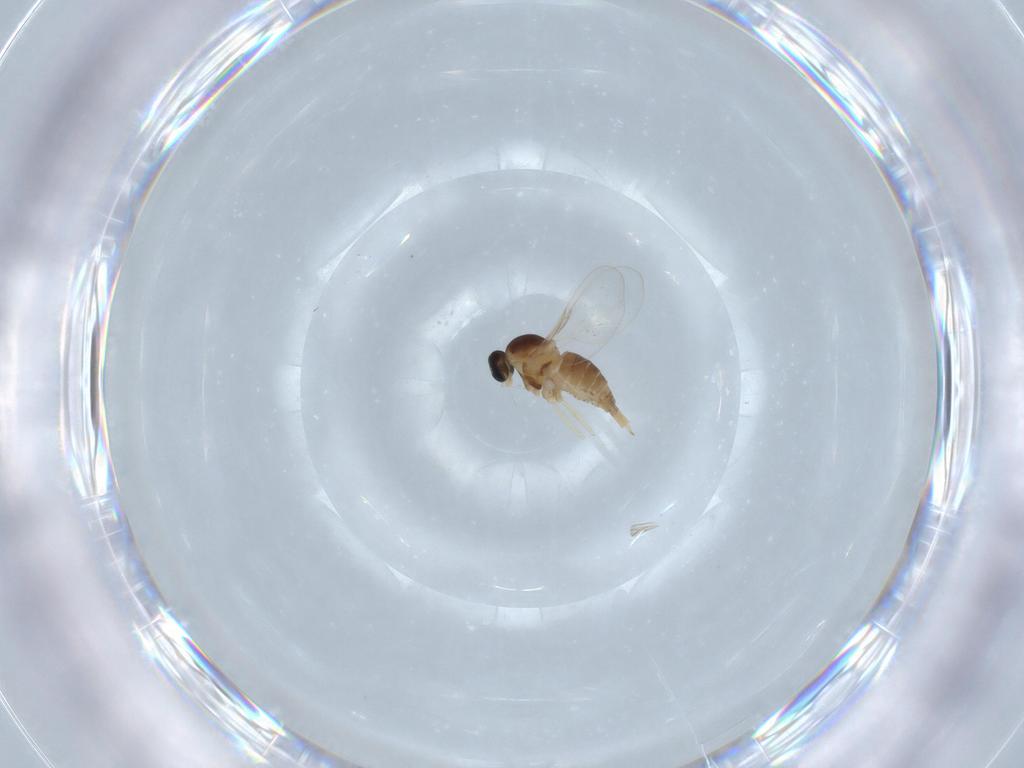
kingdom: Animalia
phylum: Arthropoda
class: Insecta
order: Diptera
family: Cecidomyiidae
